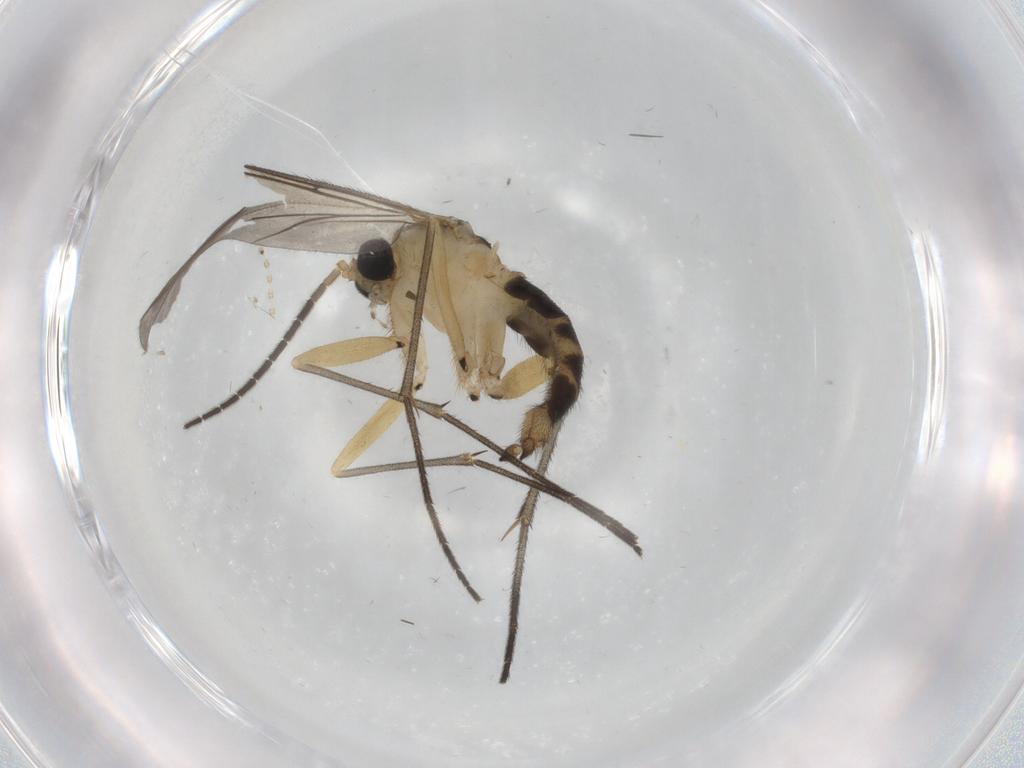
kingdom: Animalia
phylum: Arthropoda
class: Insecta
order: Diptera
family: Sciaridae
